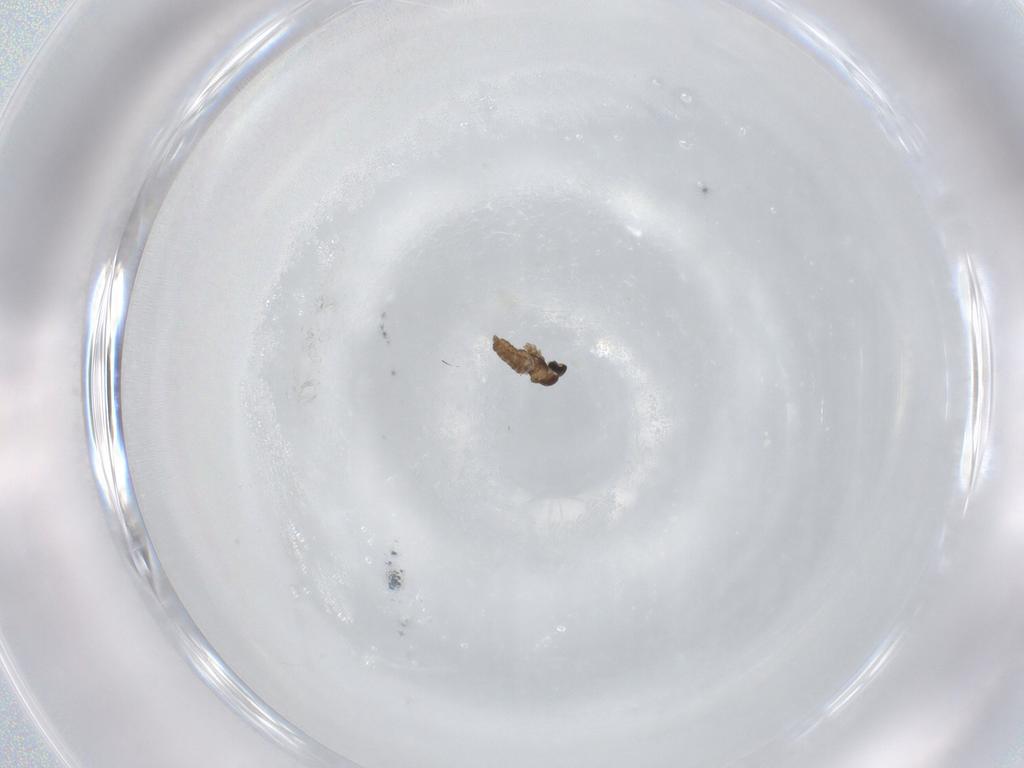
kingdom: Animalia
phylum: Arthropoda
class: Insecta
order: Diptera
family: Cecidomyiidae
